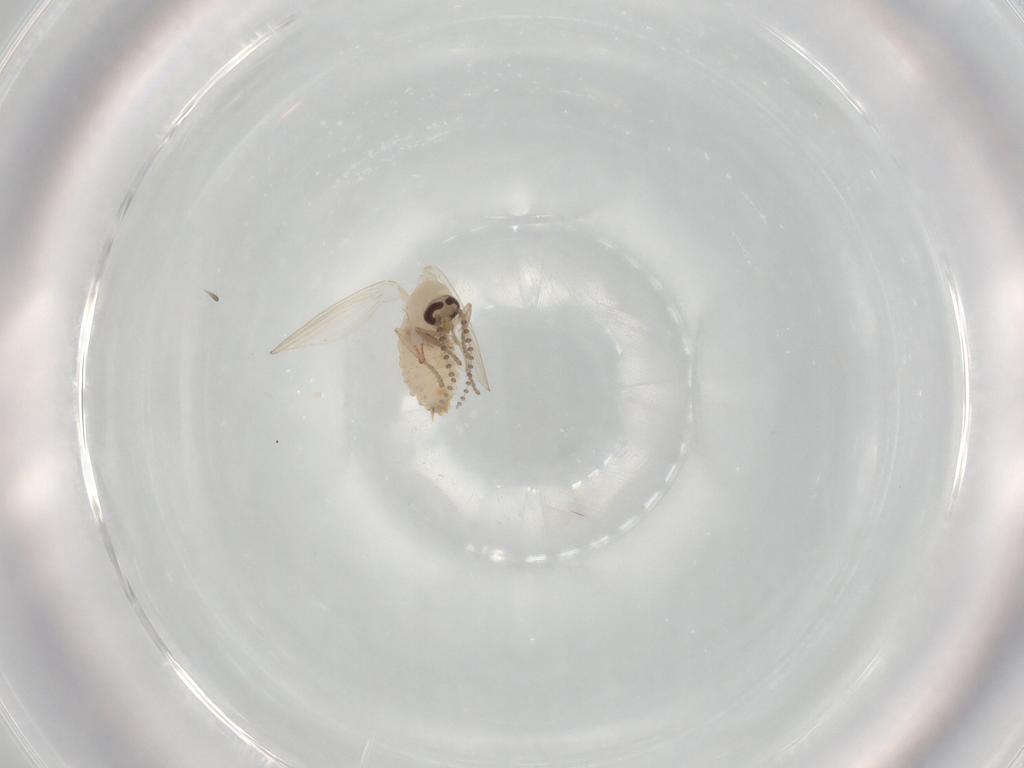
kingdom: Animalia
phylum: Arthropoda
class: Insecta
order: Diptera
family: Psychodidae
